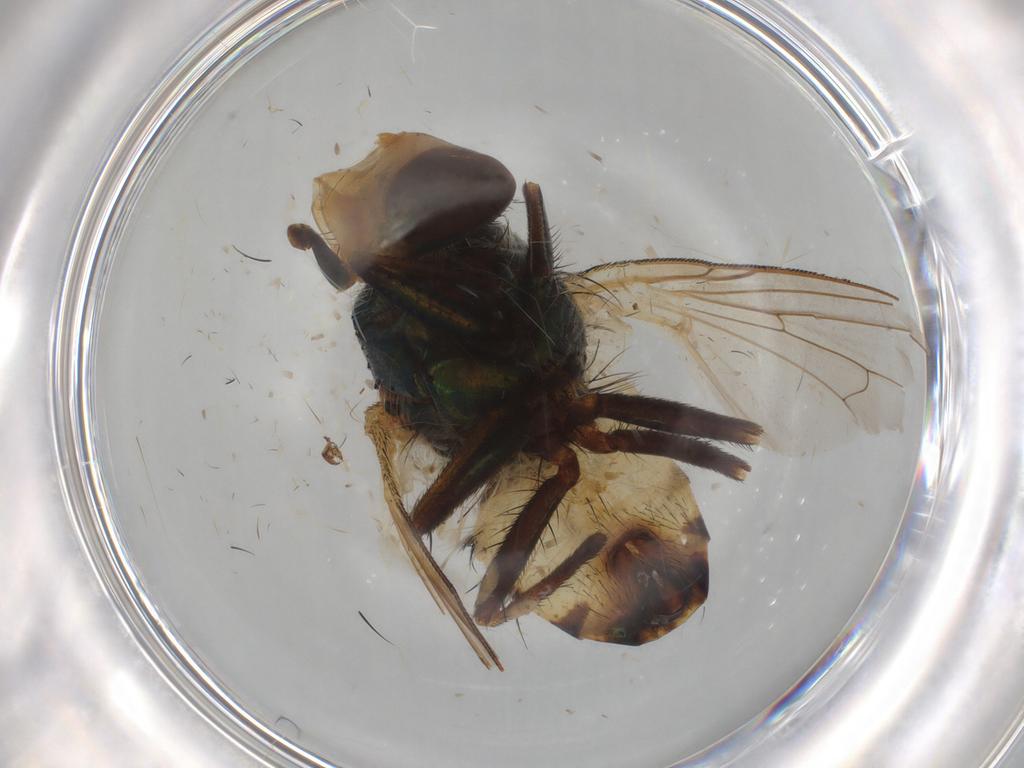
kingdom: Animalia
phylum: Arthropoda
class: Insecta
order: Diptera
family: Calliphoridae
